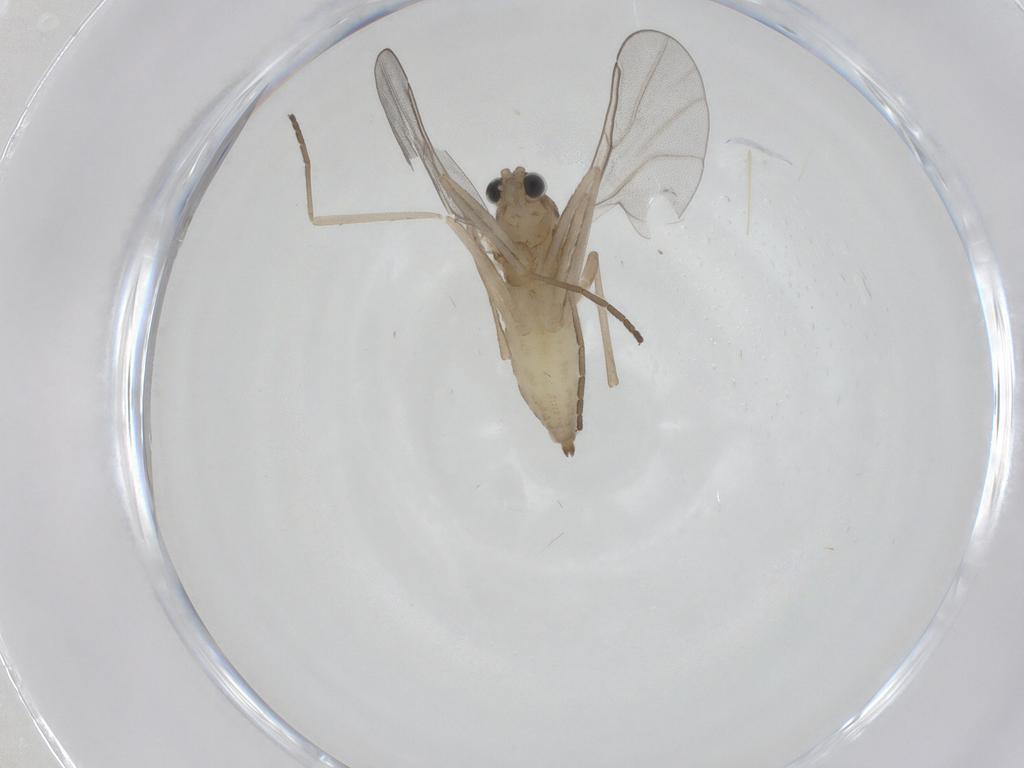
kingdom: Animalia
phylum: Arthropoda
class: Insecta
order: Diptera
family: Cecidomyiidae
